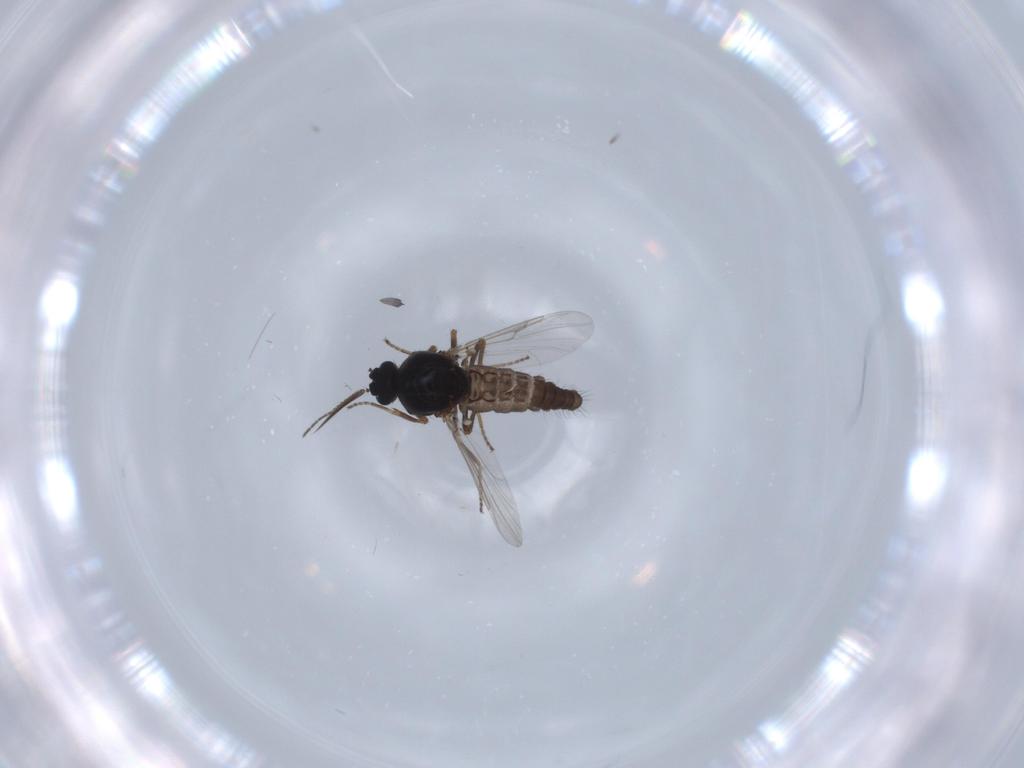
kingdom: Animalia
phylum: Arthropoda
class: Insecta
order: Diptera
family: Ceratopogonidae
